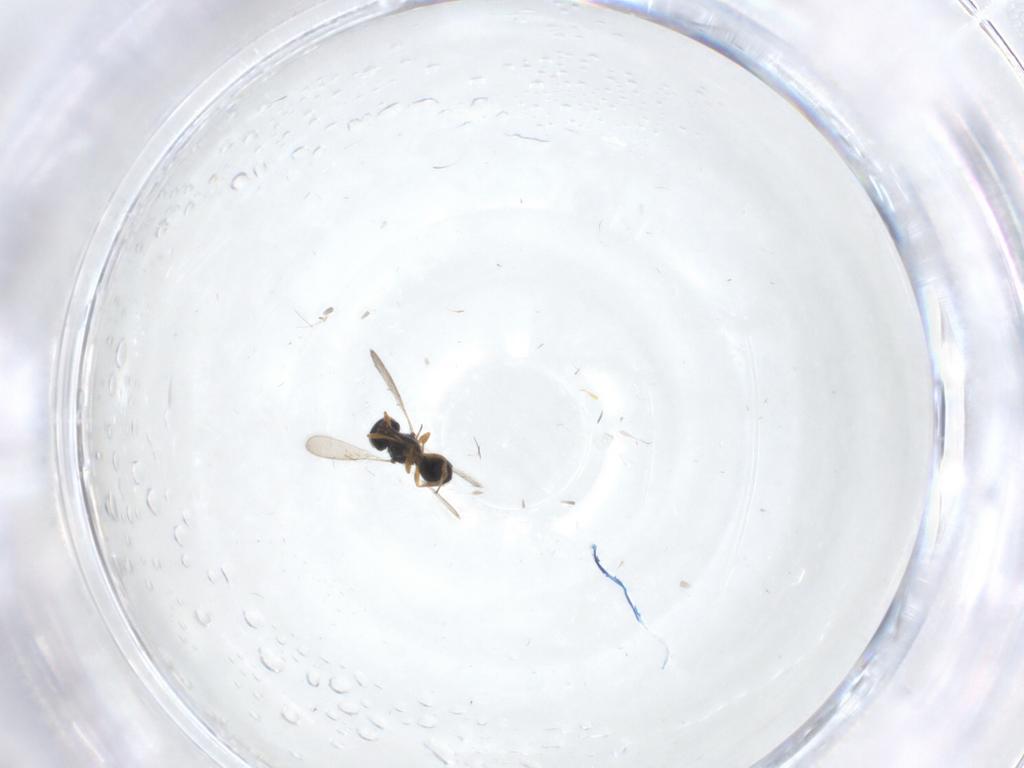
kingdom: Animalia
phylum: Arthropoda
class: Insecta
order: Hymenoptera
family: Scelionidae
